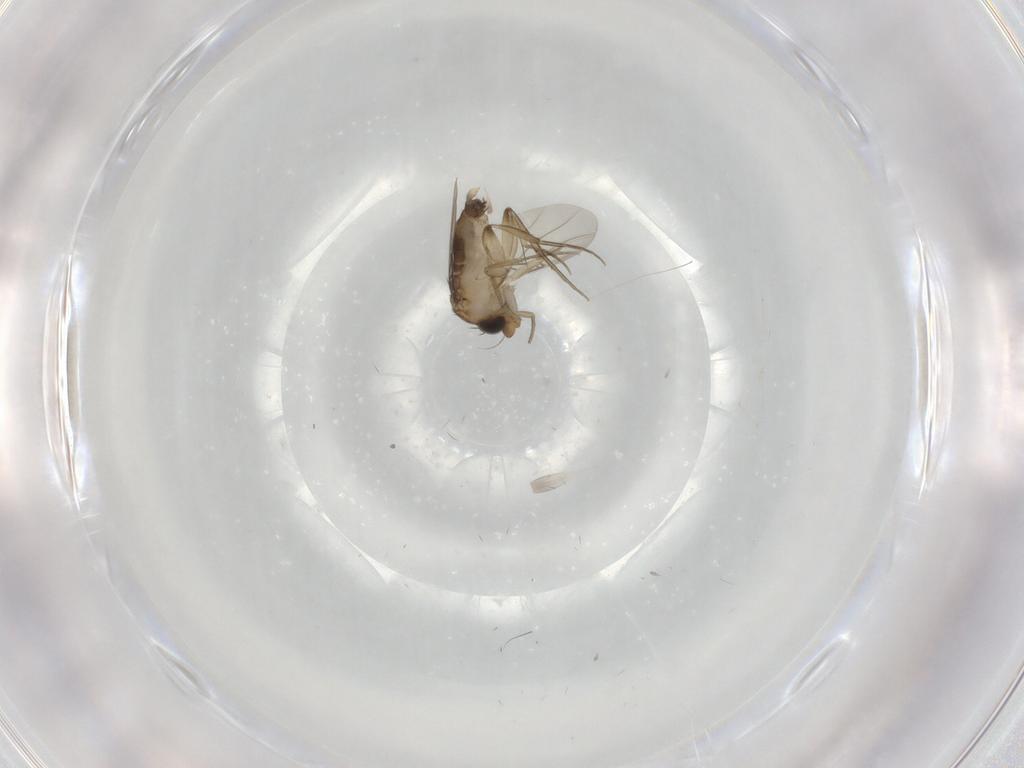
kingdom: Animalia
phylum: Arthropoda
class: Insecta
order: Diptera
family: Phoridae
